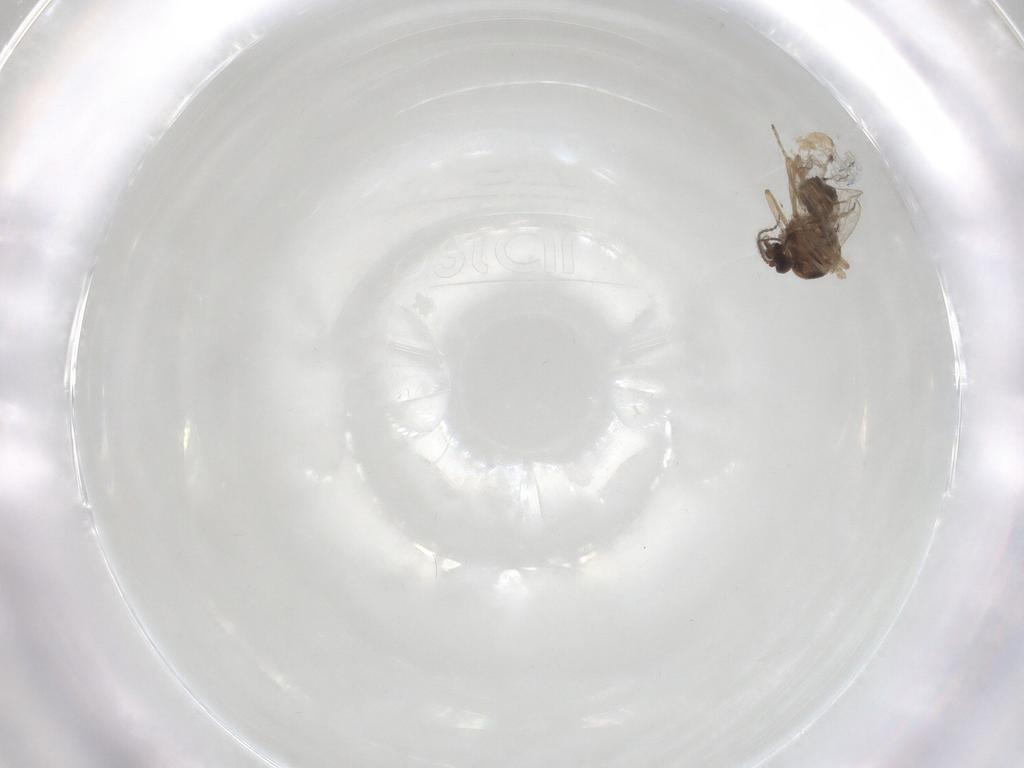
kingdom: Animalia
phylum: Arthropoda
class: Insecta
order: Diptera
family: Ceratopogonidae
